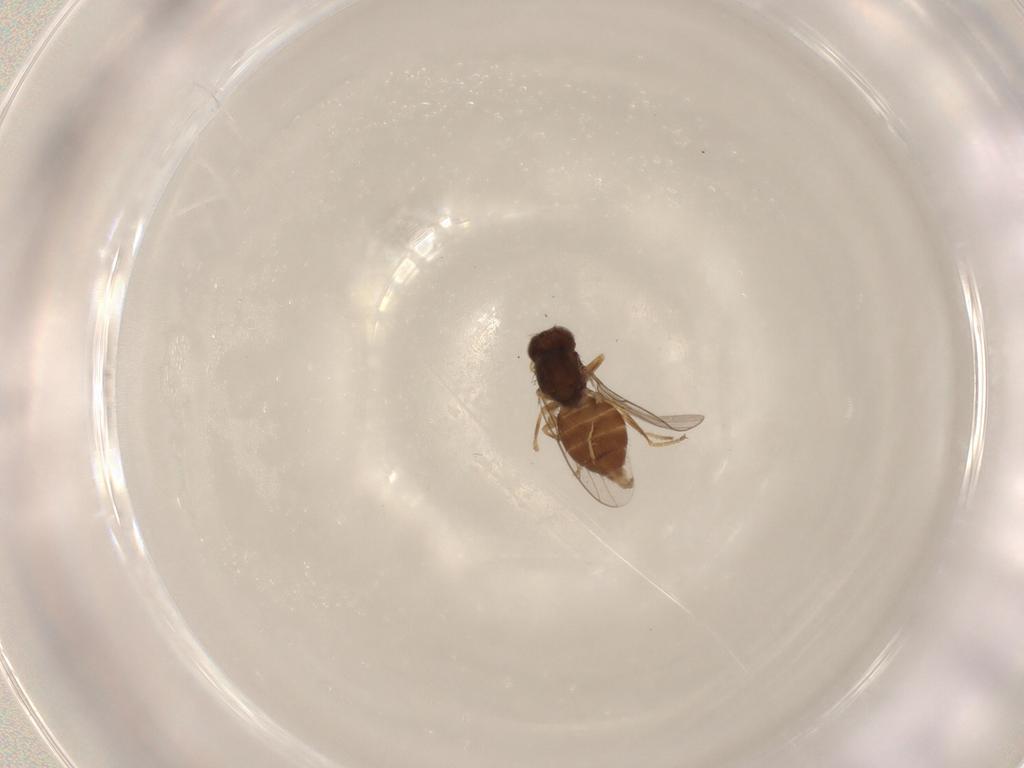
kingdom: Animalia
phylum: Arthropoda
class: Insecta
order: Diptera
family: Chloropidae
